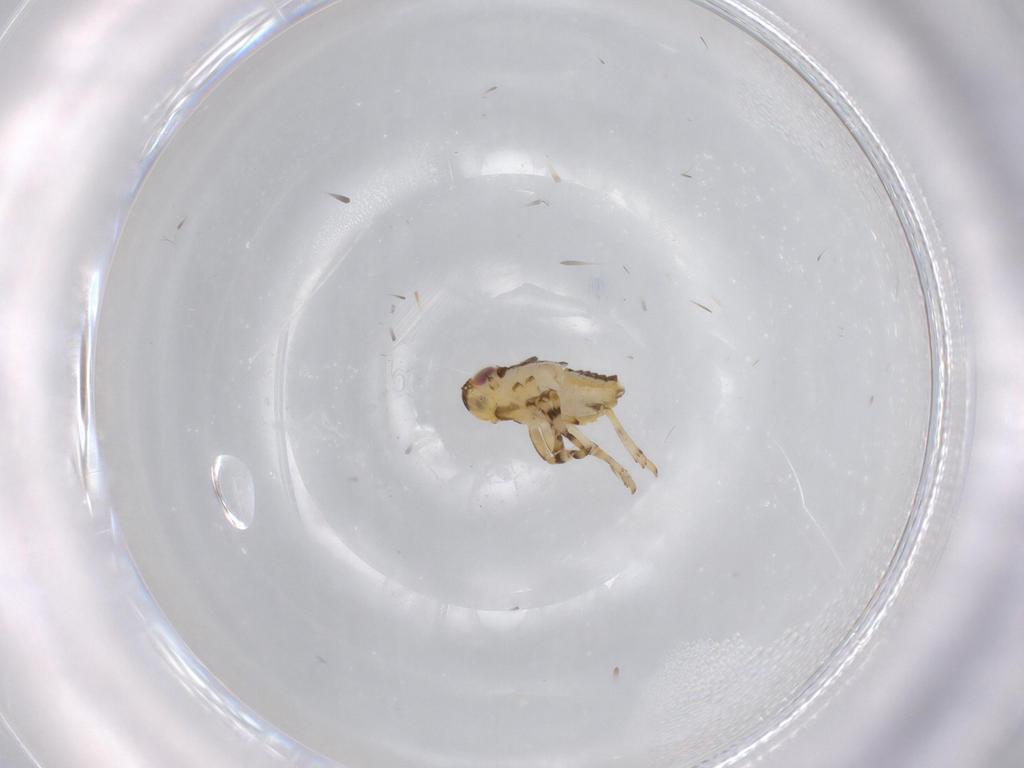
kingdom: Animalia
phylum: Arthropoda
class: Insecta
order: Hemiptera
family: Issidae
